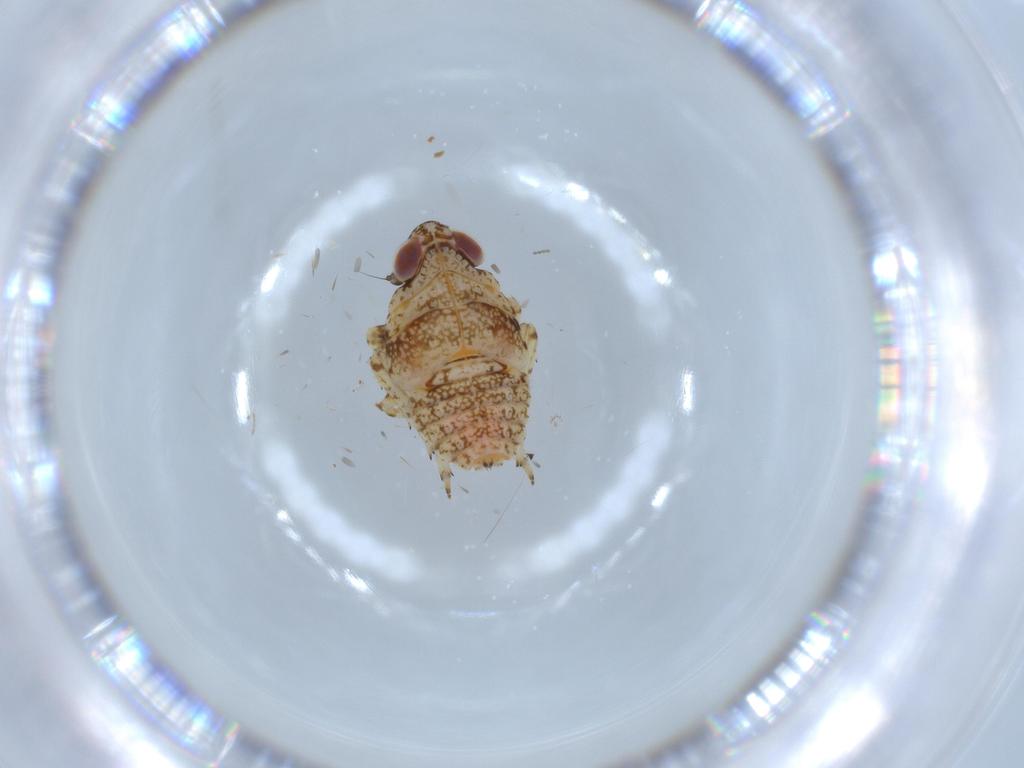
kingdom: Animalia
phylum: Arthropoda
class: Insecta
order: Hemiptera
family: Issidae
